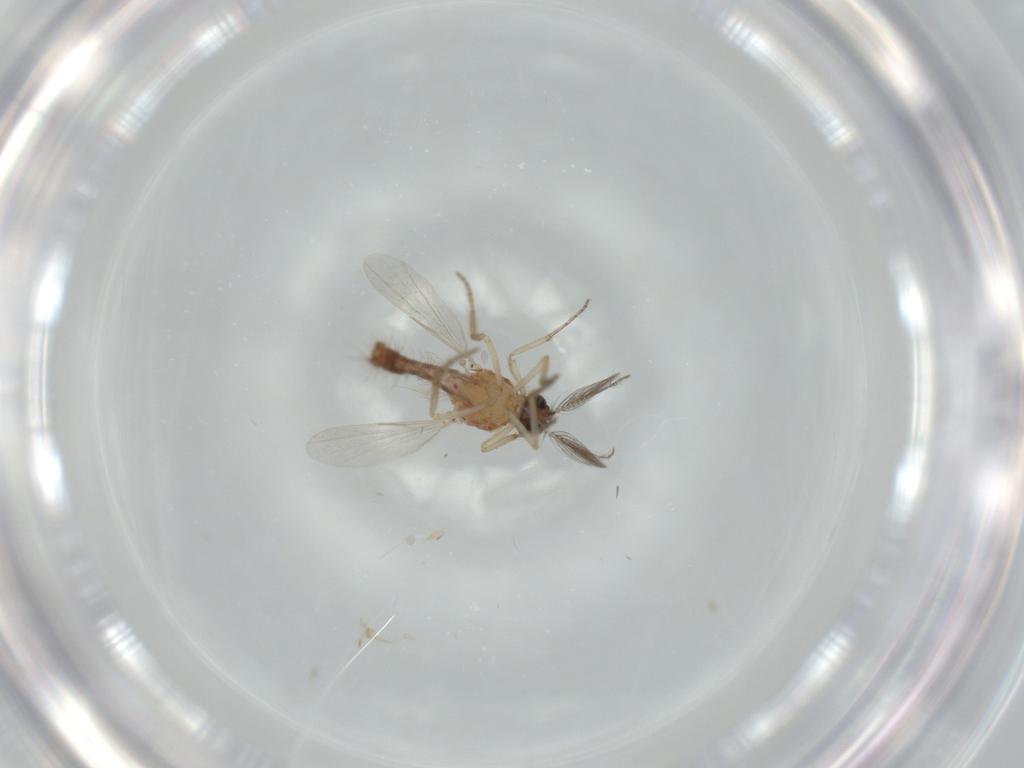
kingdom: Animalia
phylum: Arthropoda
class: Insecta
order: Diptera
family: Ceratopogonidae
